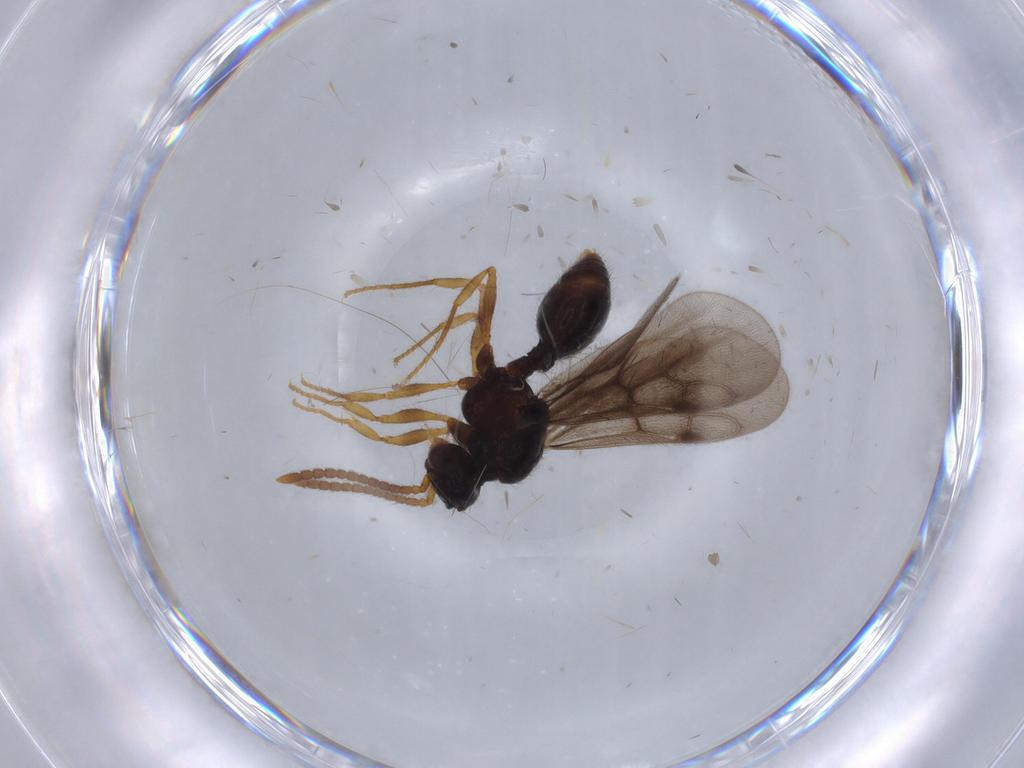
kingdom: Animalia
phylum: Arthropoda
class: Insecta
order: Hymenoptera
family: Formicidae
